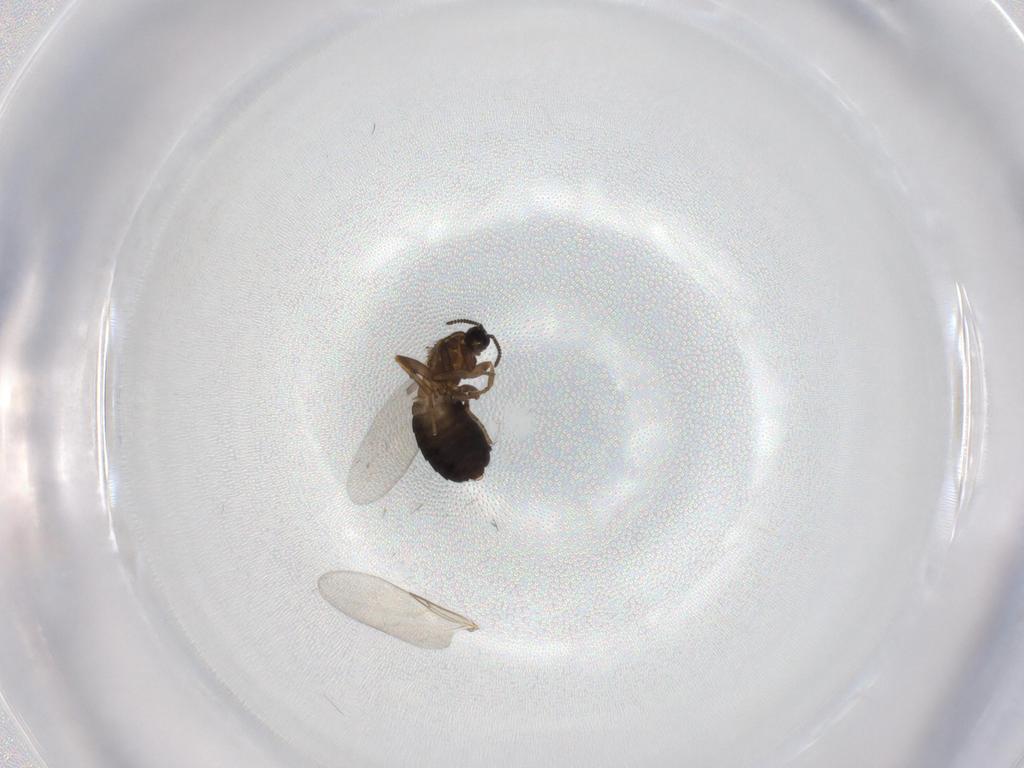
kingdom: Animalia
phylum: Arthropoda
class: Insecta
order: Diptera
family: Scatopsidae
